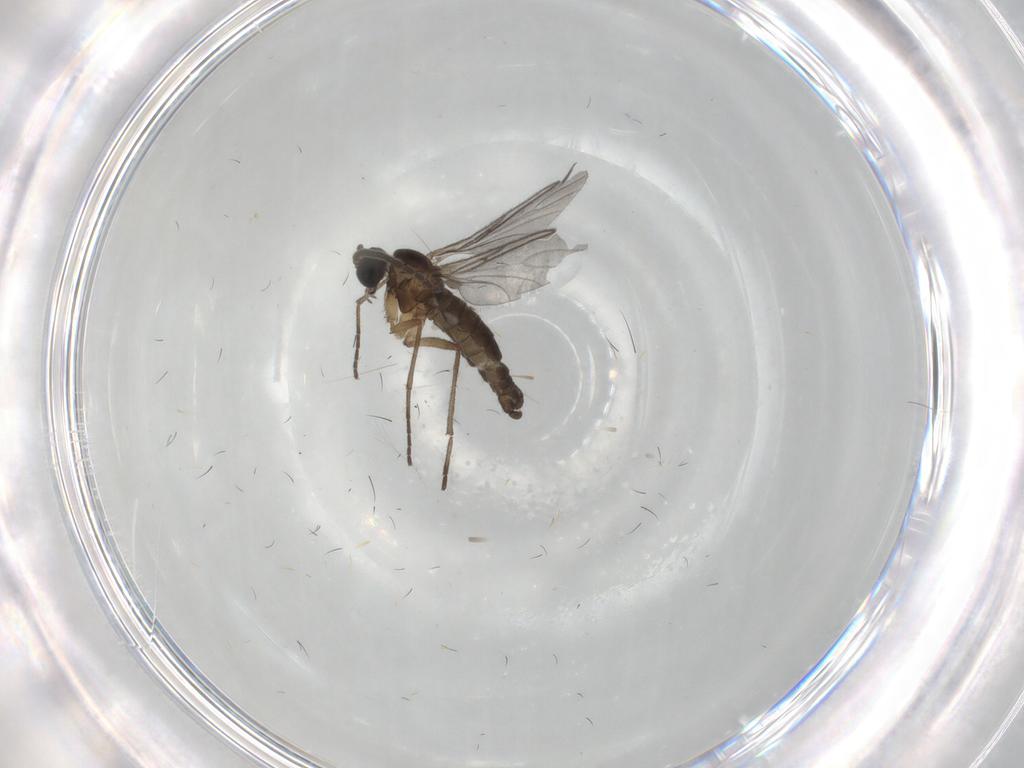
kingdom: Animalia
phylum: Arthropoda
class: Insecta
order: Diptera
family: Sciaridae
